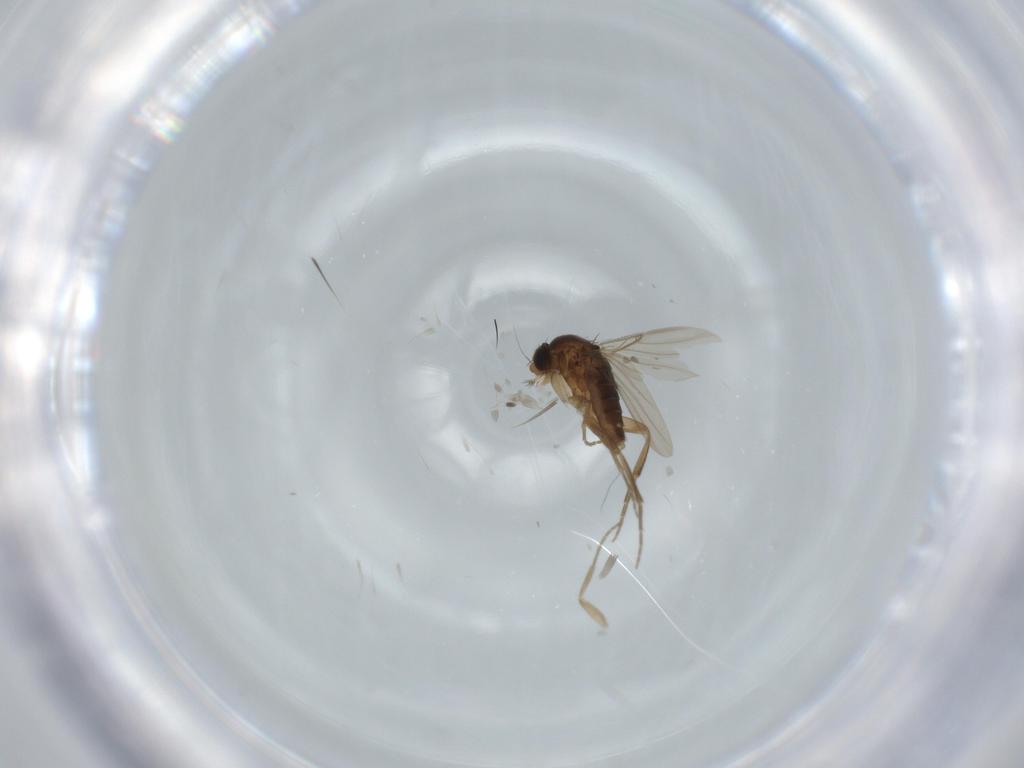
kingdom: Animalia
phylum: Arthropoda
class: Insecta
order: Diptera
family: Phoridae
